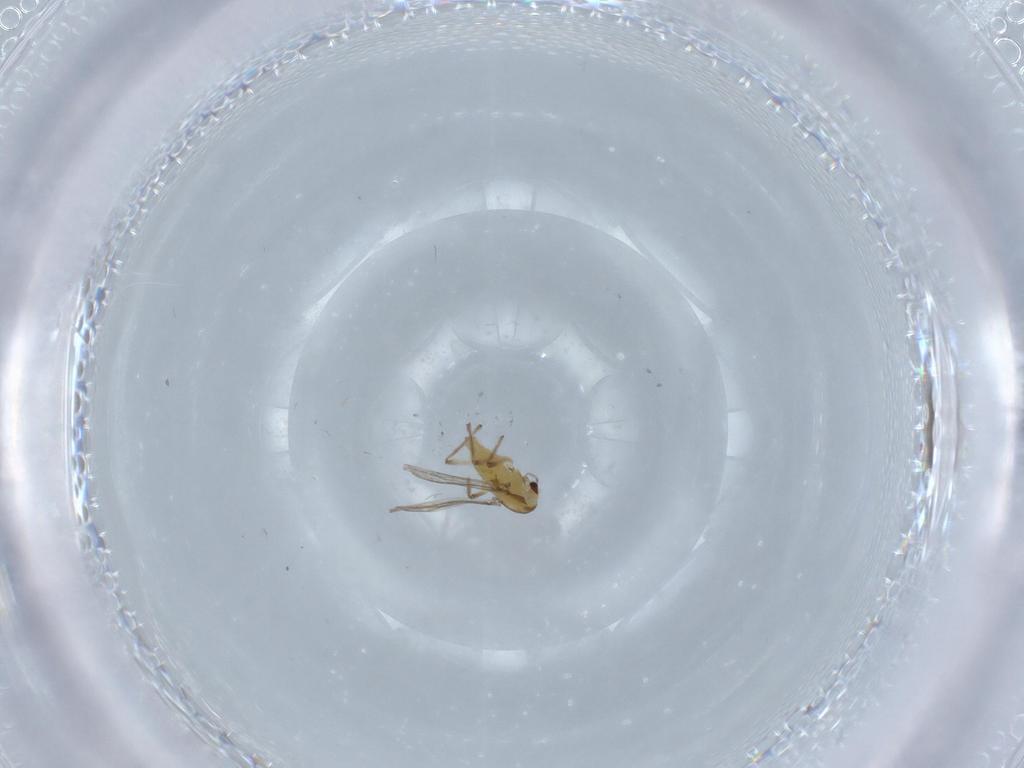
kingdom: Animalia
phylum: Arthropoda
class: Insecta
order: Diptera
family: Chironomidae
